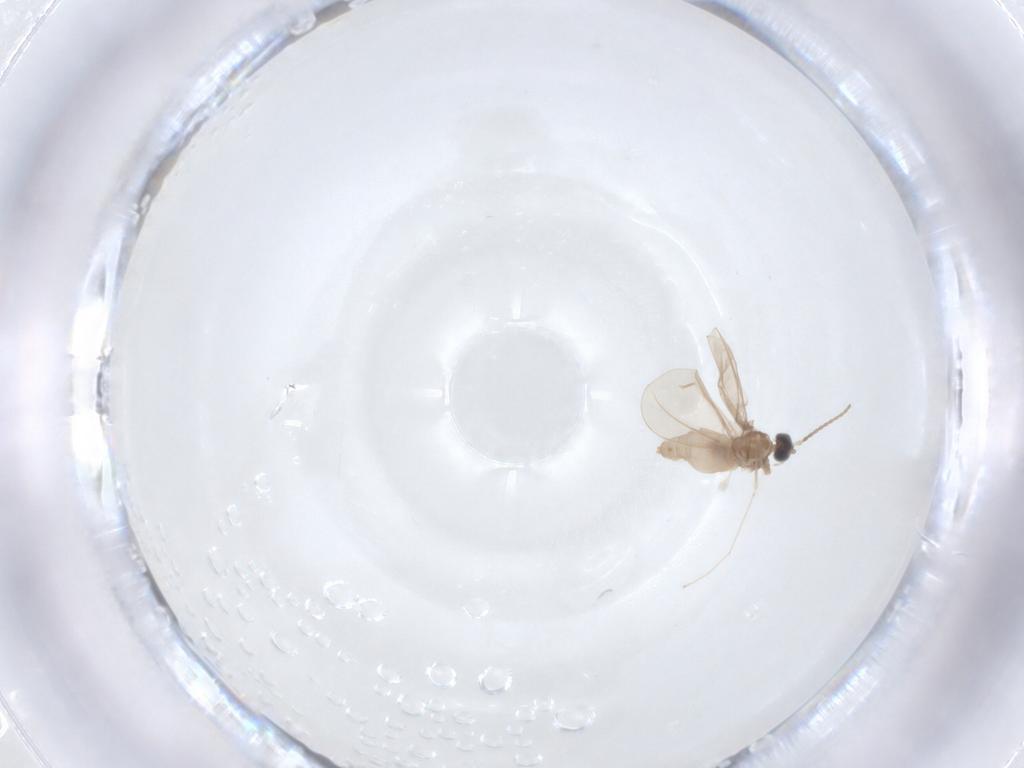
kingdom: Animalia
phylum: Arthropoda
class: Insecta
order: Diptera
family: Cecidomyiidae
